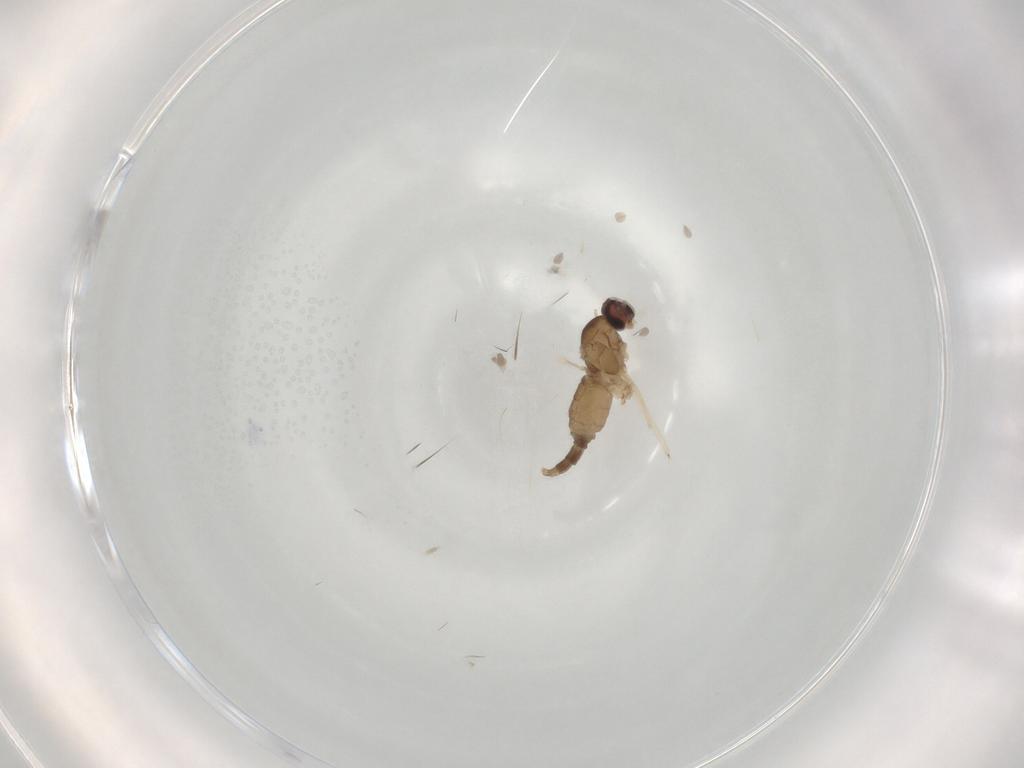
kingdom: Animalia
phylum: Arthropoda
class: Insecta
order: Diptera
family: Cecidomyiidae
